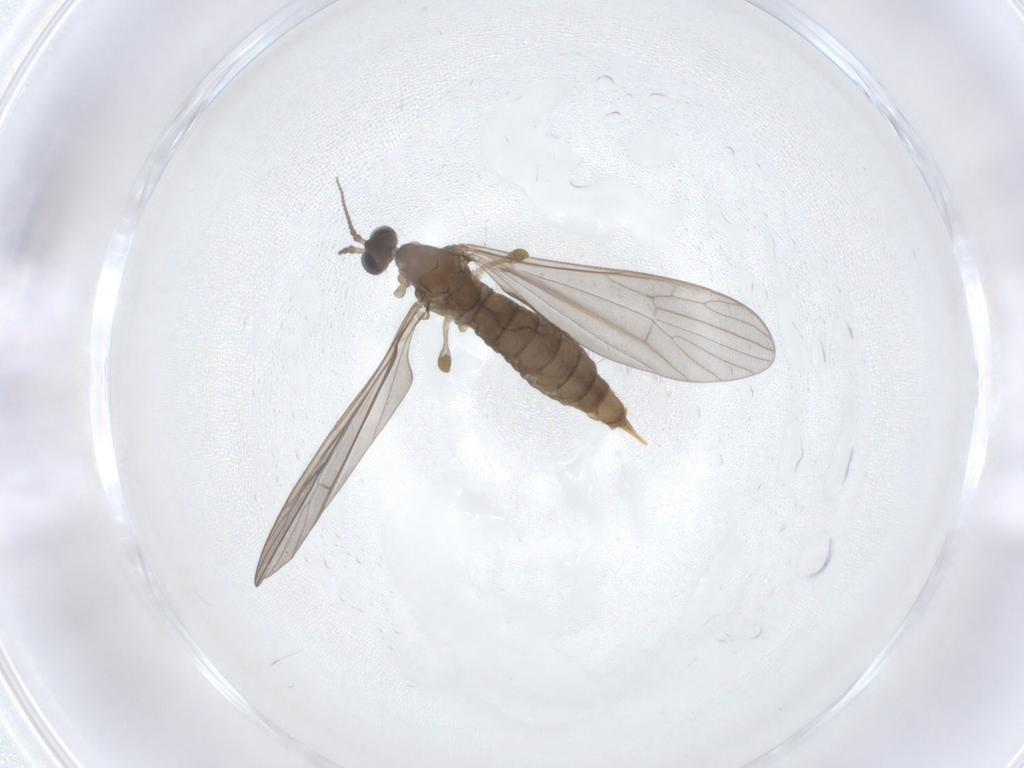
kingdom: Animalia
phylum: Arthropoda
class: Insecta
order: Diptera
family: Limoniidae
